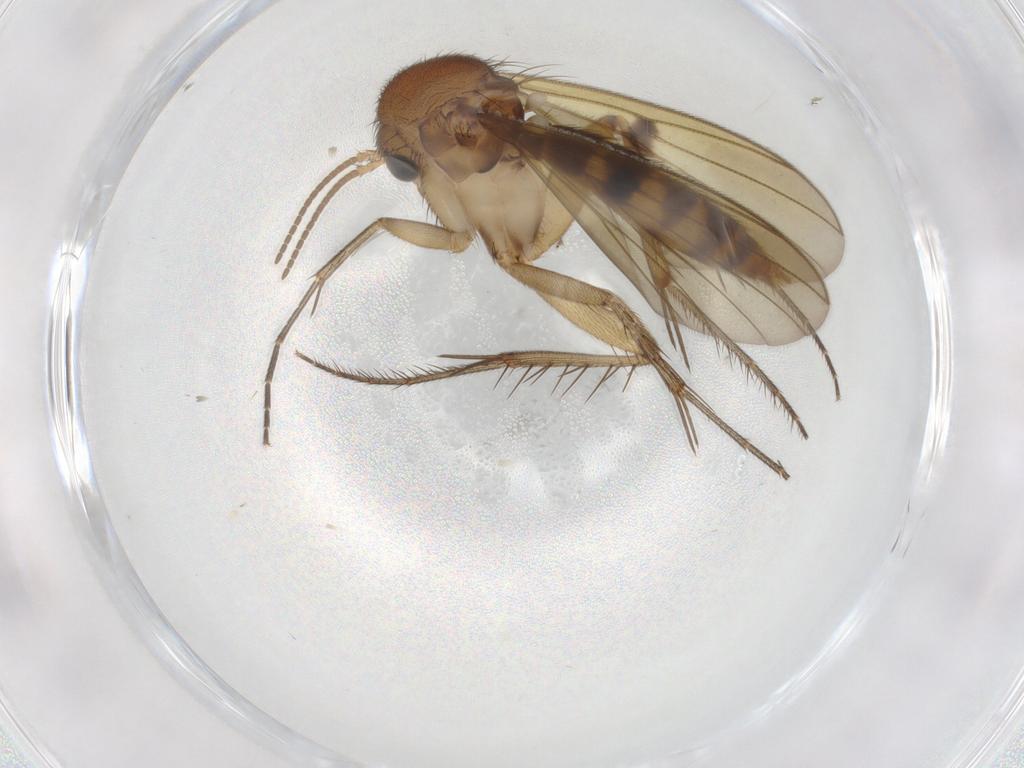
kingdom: Animalia
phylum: Arthropoda
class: Insecta
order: Diptera
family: Mycetophilidae
